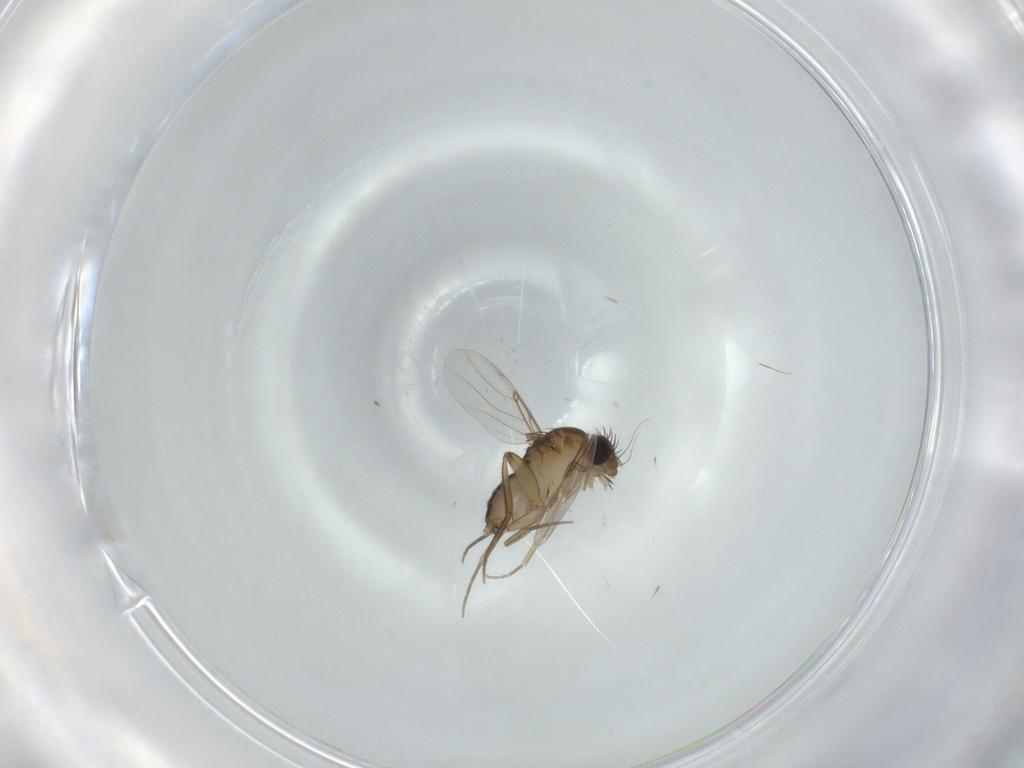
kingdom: Animalia
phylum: Arthropoda
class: Insecta
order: Diptera
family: Phoridae
